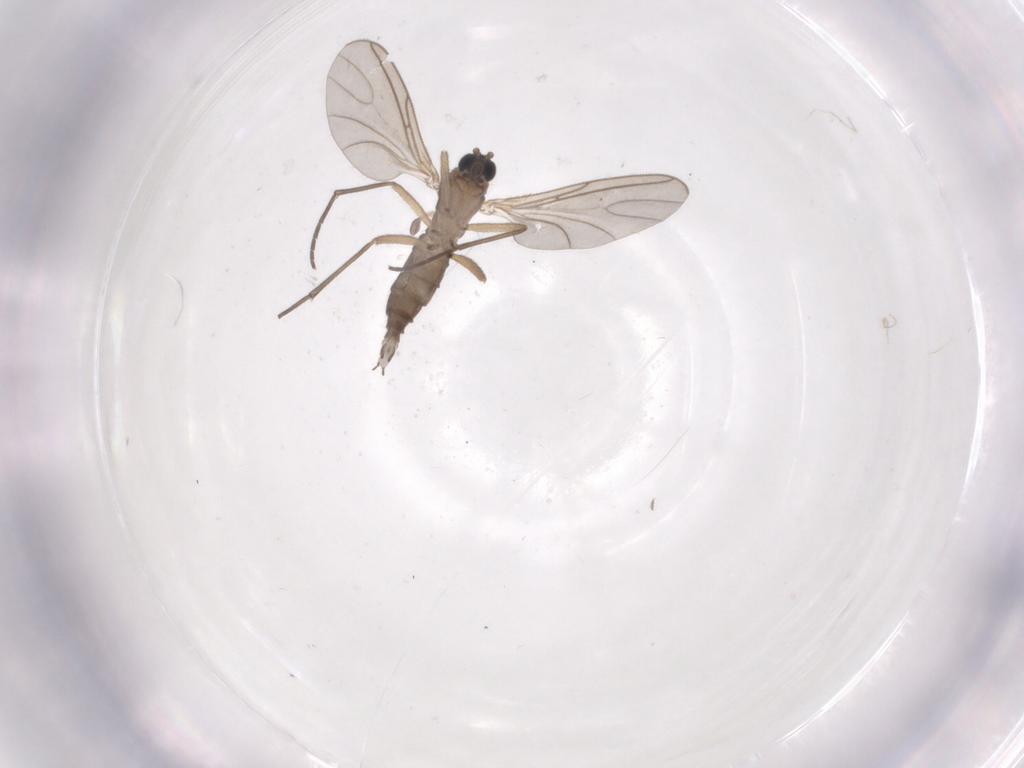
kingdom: Animalia
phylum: Arthropoda
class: Insecta
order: Diptera
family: Sciaridae
